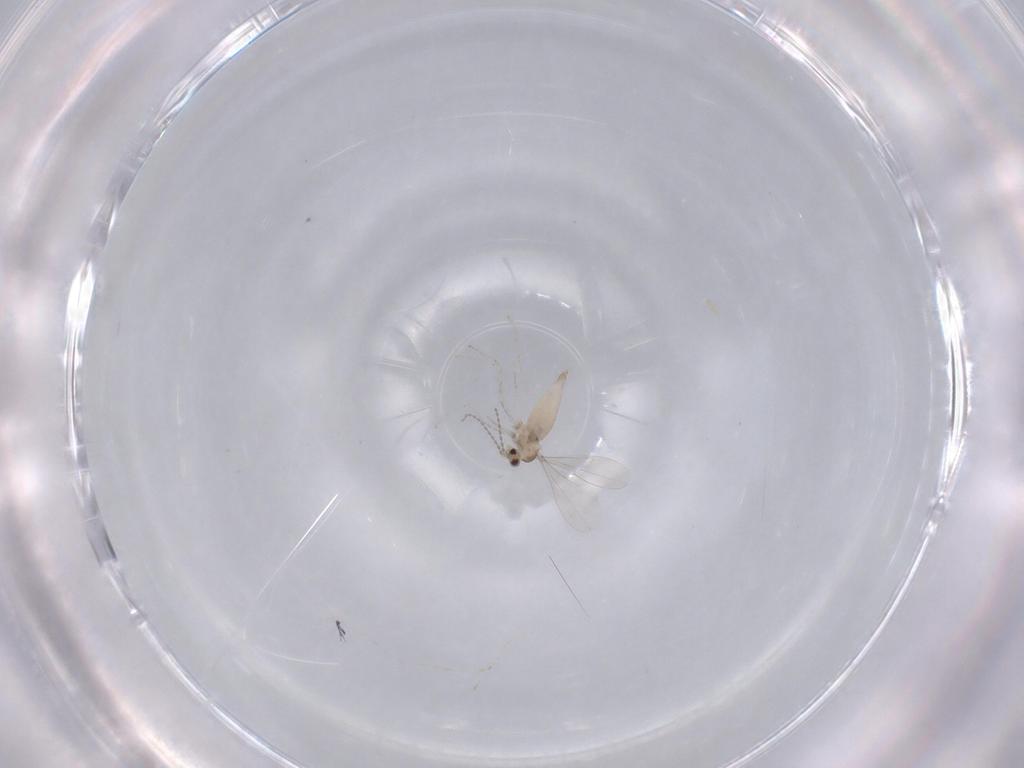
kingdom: Animalia
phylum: Arthropoda
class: Insecta
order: Diptera
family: Cecidomyiidae
